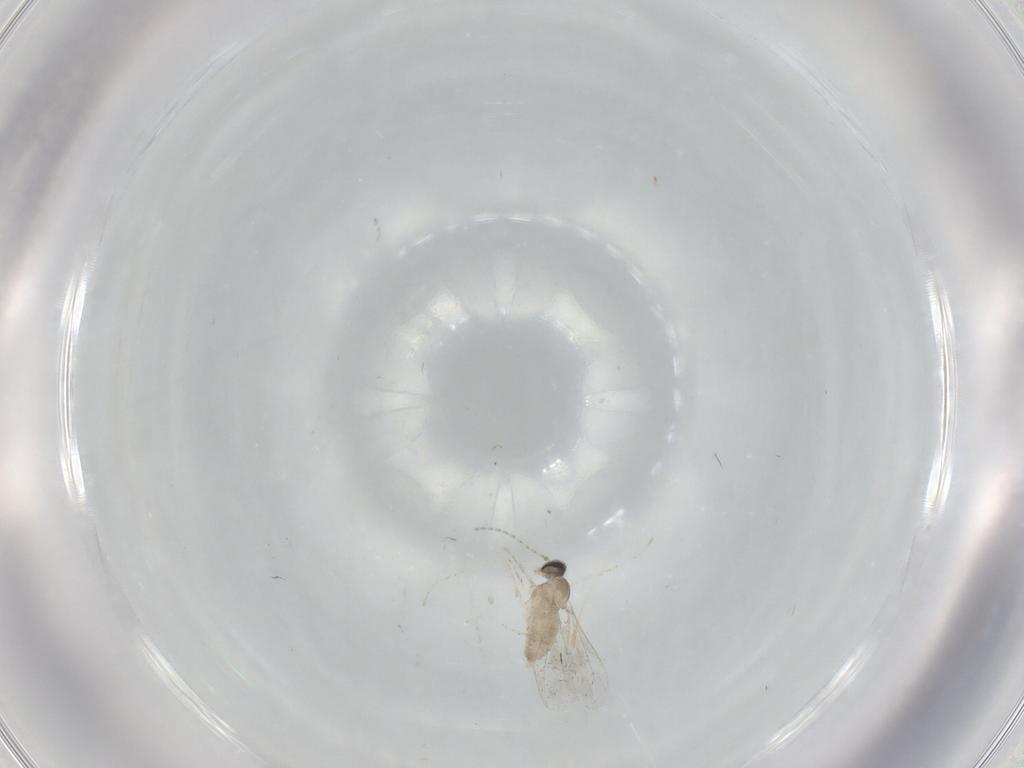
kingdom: Animalia
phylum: Arthropoda
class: Insecta
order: Diptera
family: Cecidomyiidae
